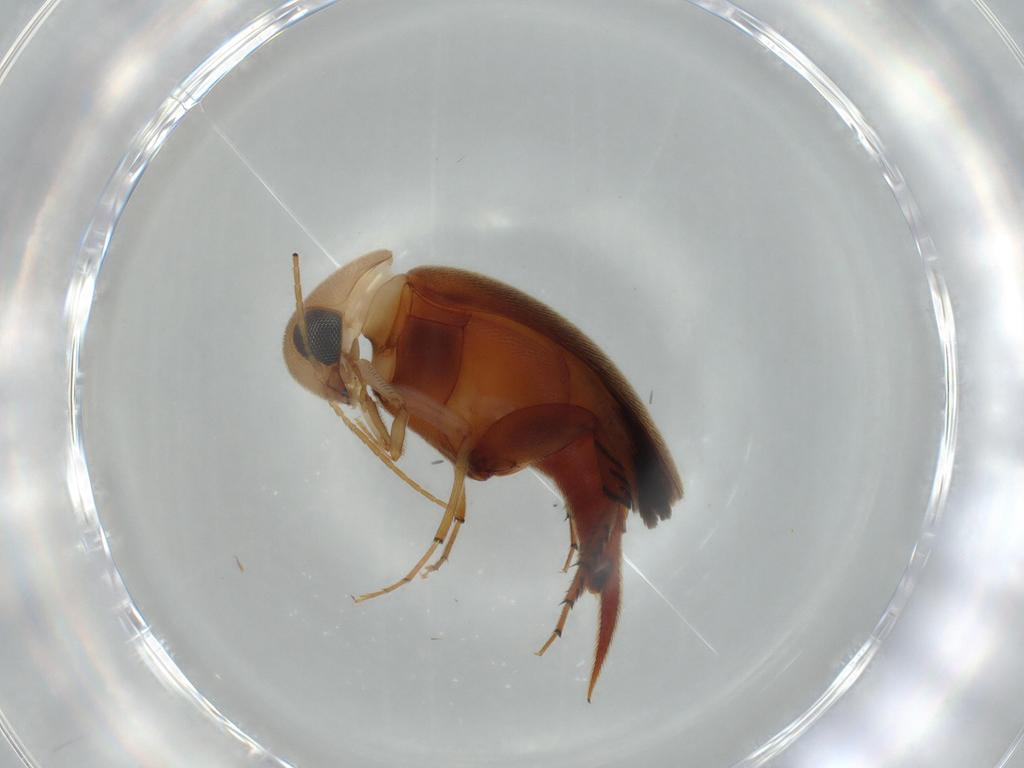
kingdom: Animalia
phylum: Arthropoda
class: Insecta
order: Coleoptera
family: Mordellidae
